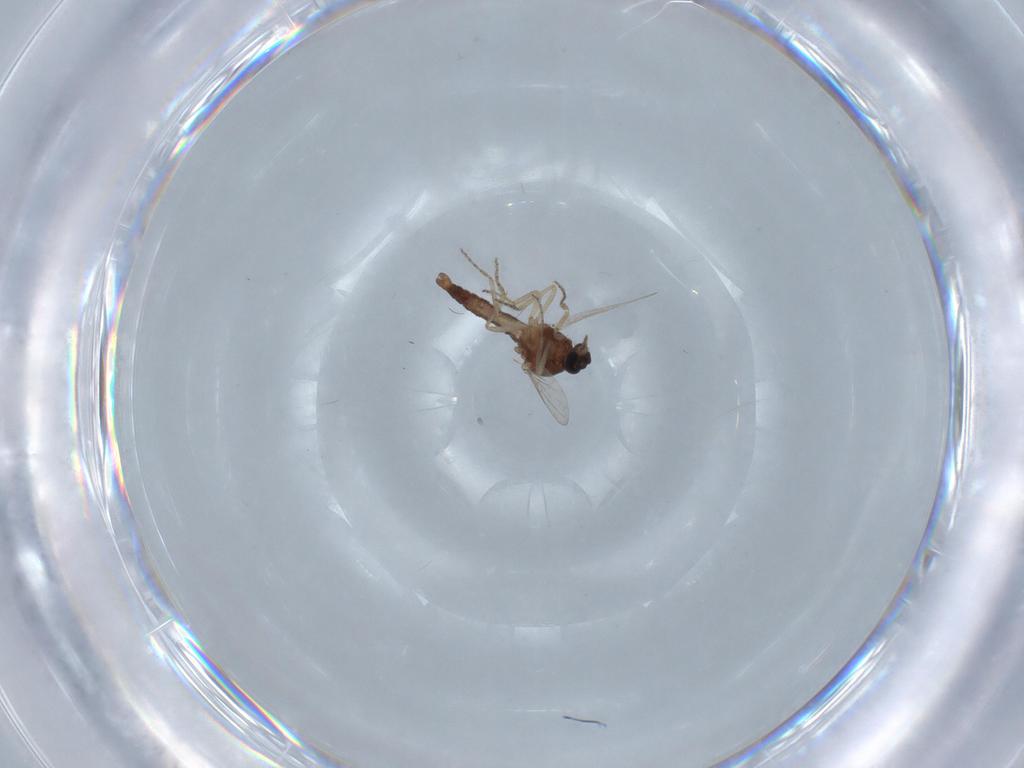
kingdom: Animalia
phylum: Arthropoda
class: Insecta
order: Diptera
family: Ceratopogonidae
